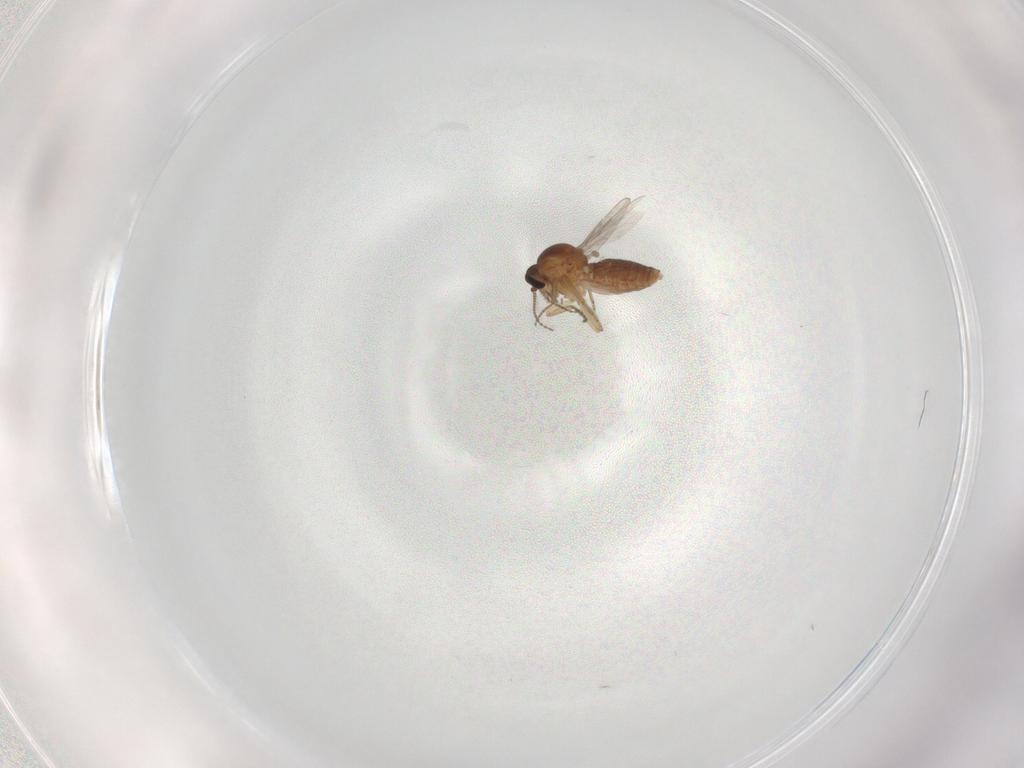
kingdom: Animalia
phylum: Arthropoda
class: Insecta
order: Diptera
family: Ceratopogonidae
